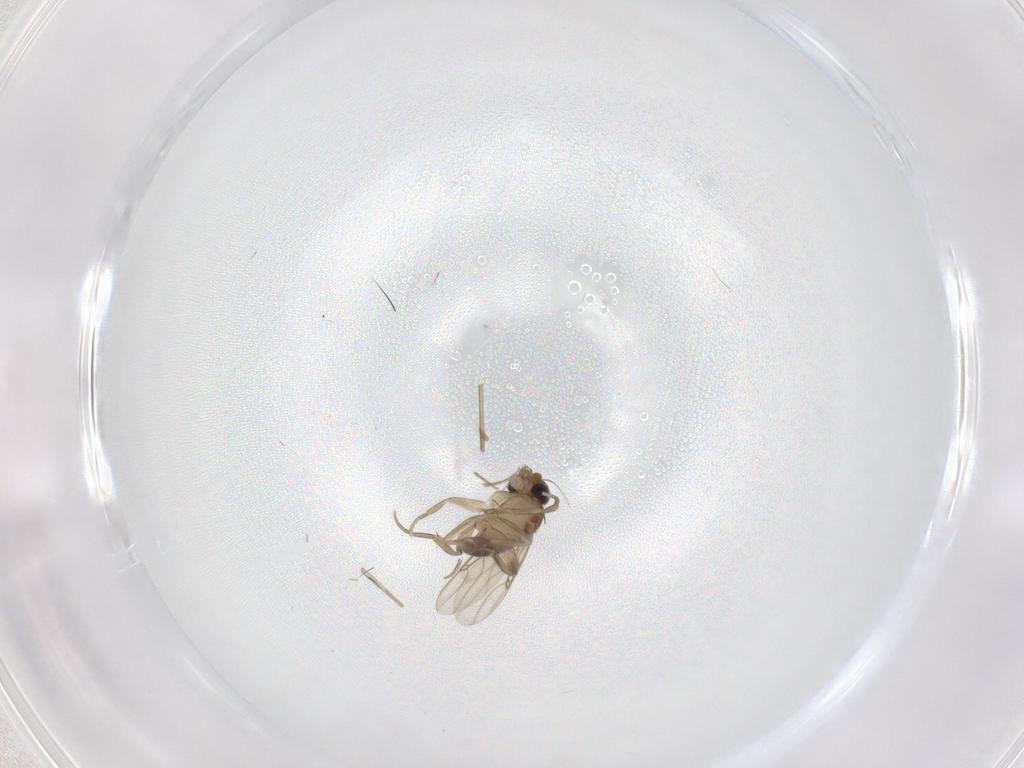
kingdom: Animalia
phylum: Arthropoda
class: Insecta
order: Diptera
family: Phoridae
